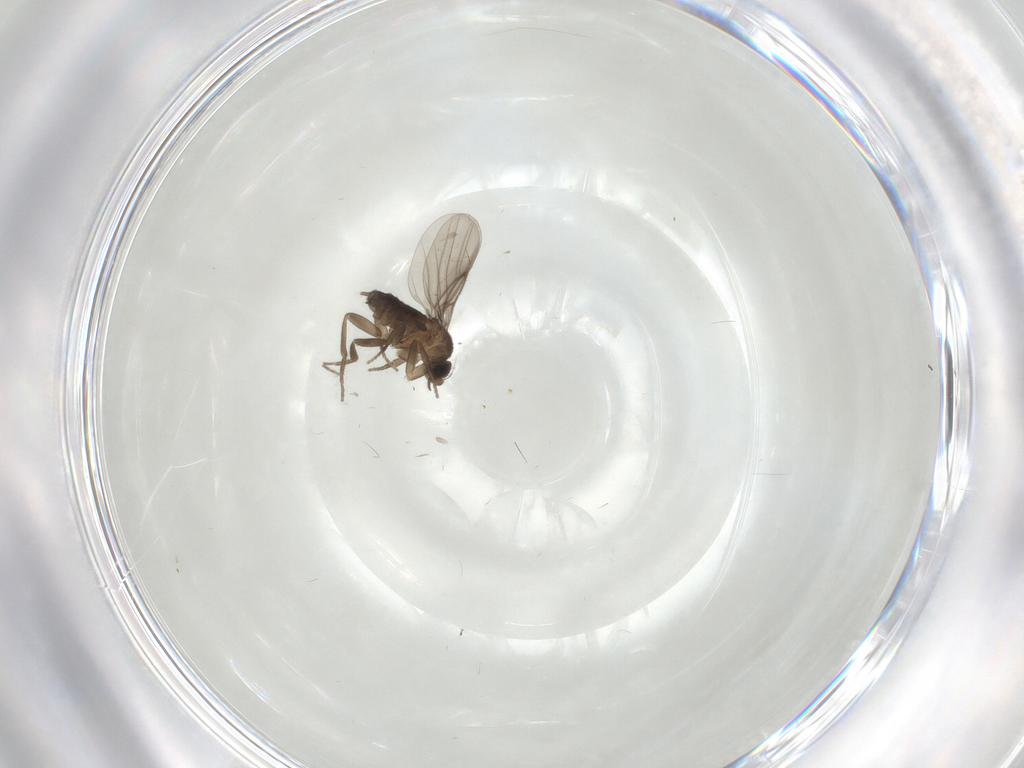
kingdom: Animalia
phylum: Arthropoda
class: Insecta
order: Diptera
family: Phoridae
